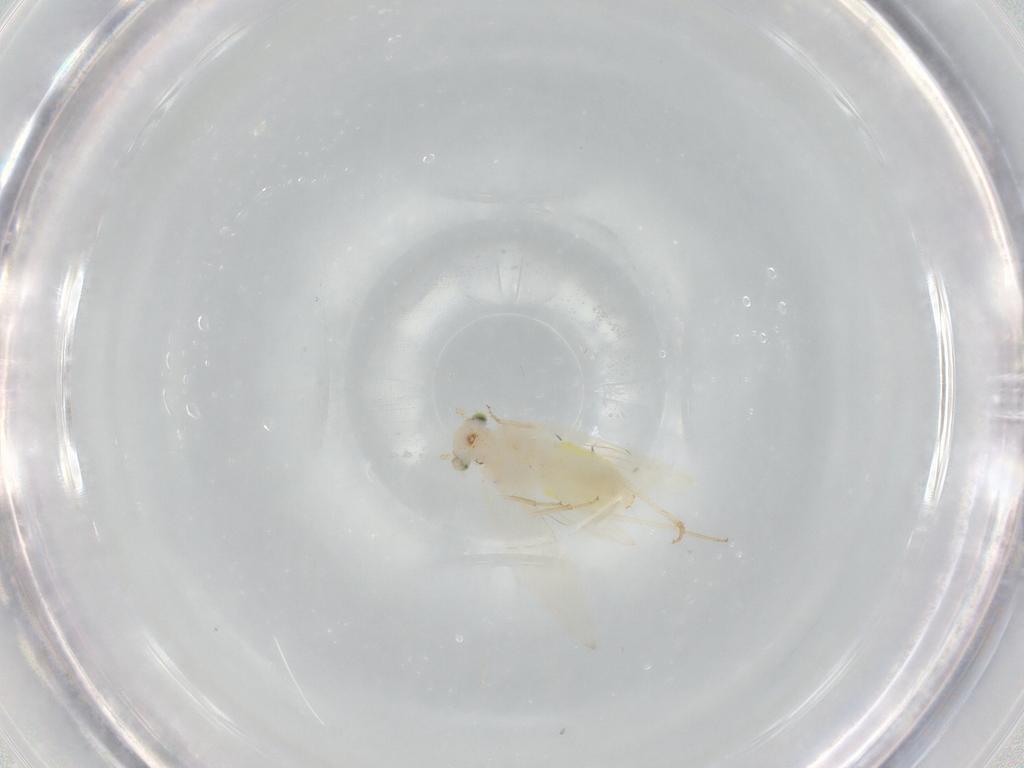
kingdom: Animalia
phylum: Arthropoda
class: Insecta
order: Psocodea
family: Lepidopsocidae
